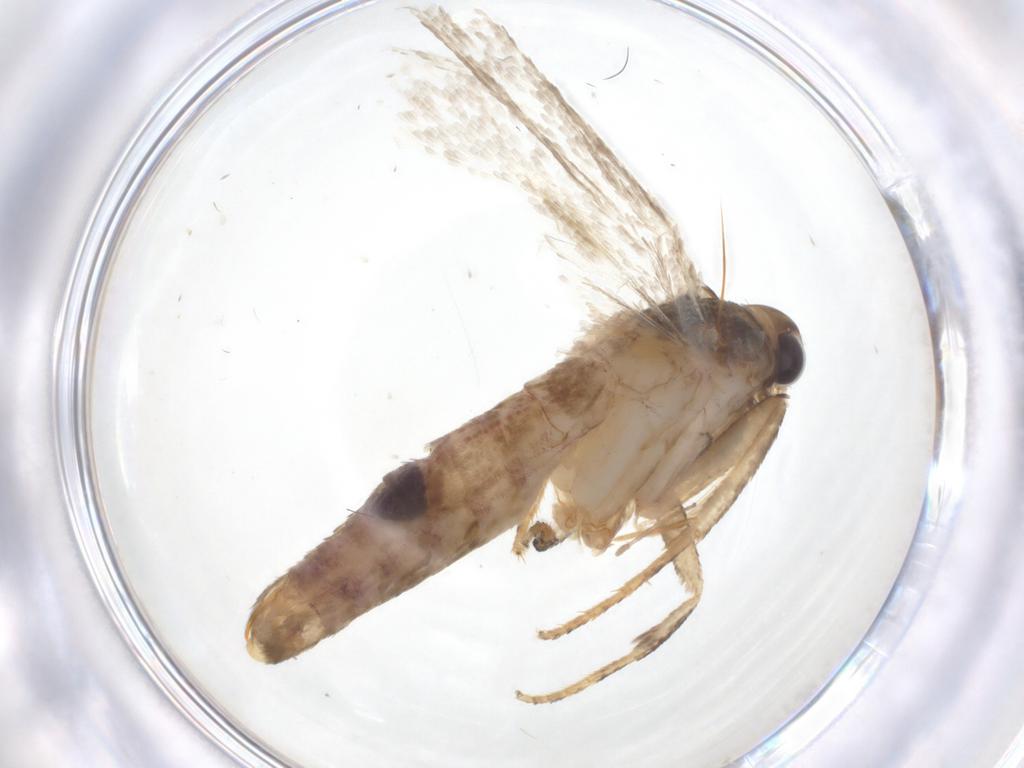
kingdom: Animalia
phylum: Arthropoda
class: Insecta
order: Lepidoptera
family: Gelechiidae
